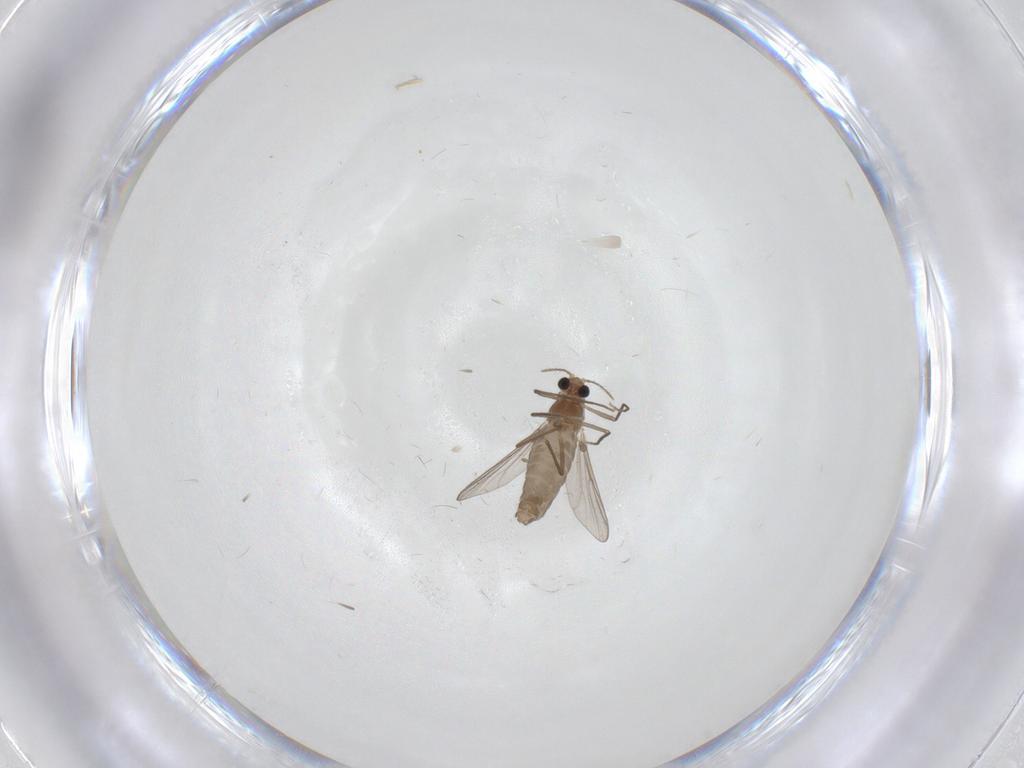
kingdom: Animalia
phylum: Arthropoda
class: Insecta
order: Diptera
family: Chironomidae
